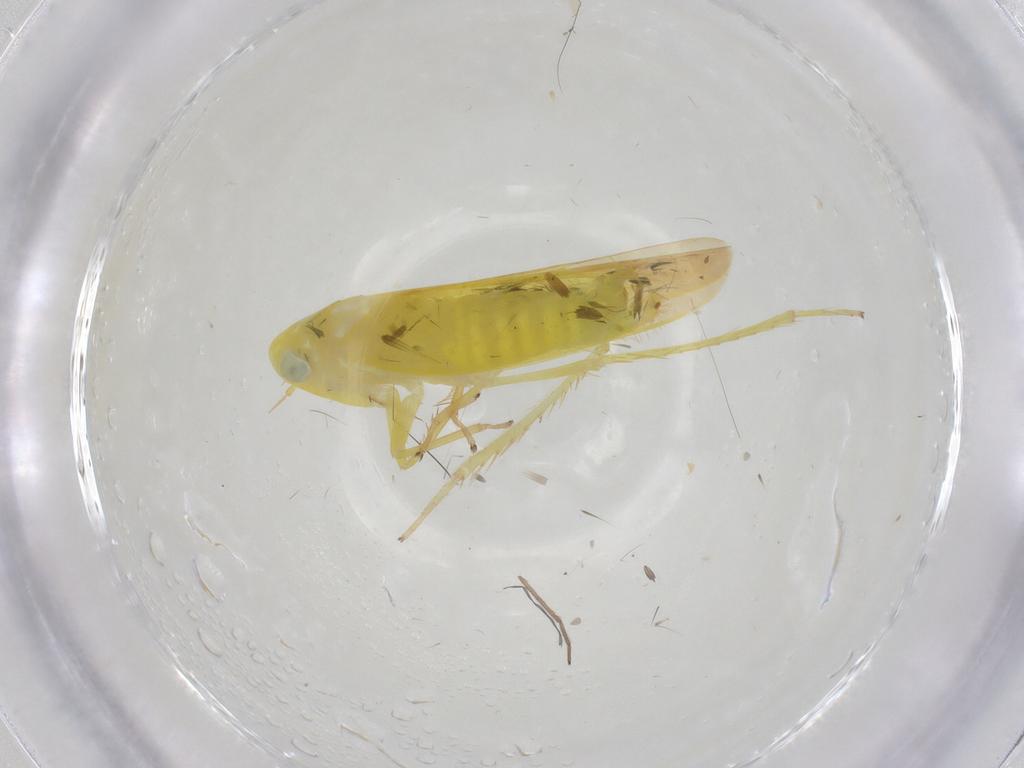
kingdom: Animalia
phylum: Arthropoda
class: Insecta
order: Hemiptera
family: Cicadellidae
